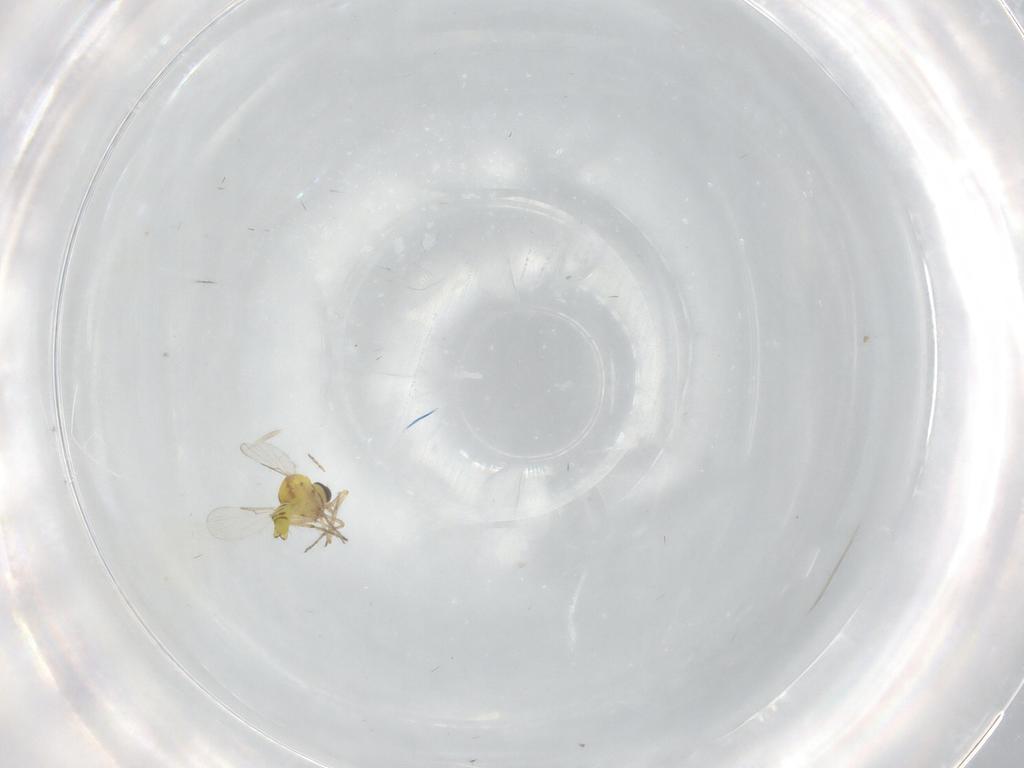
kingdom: Animalia
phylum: Arthropoda
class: Insecta
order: Diptera
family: Ceratopogonidae
